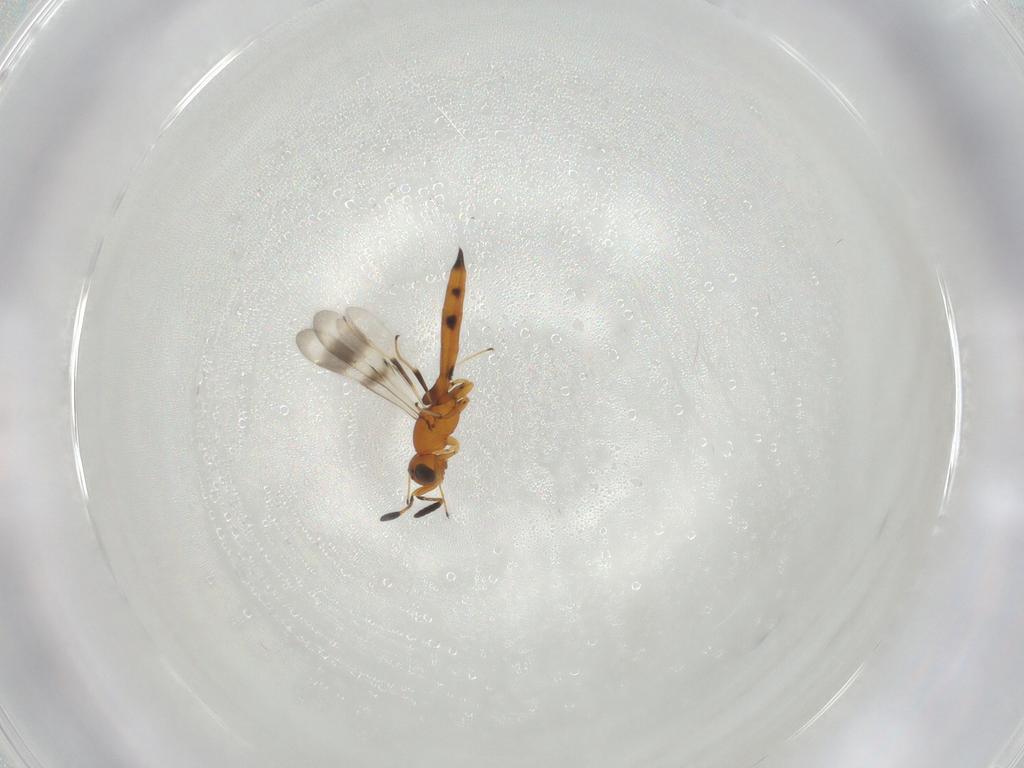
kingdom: Animalia
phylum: Arthropoda
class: Insecta
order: Hymenoptera
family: Scelionidae
